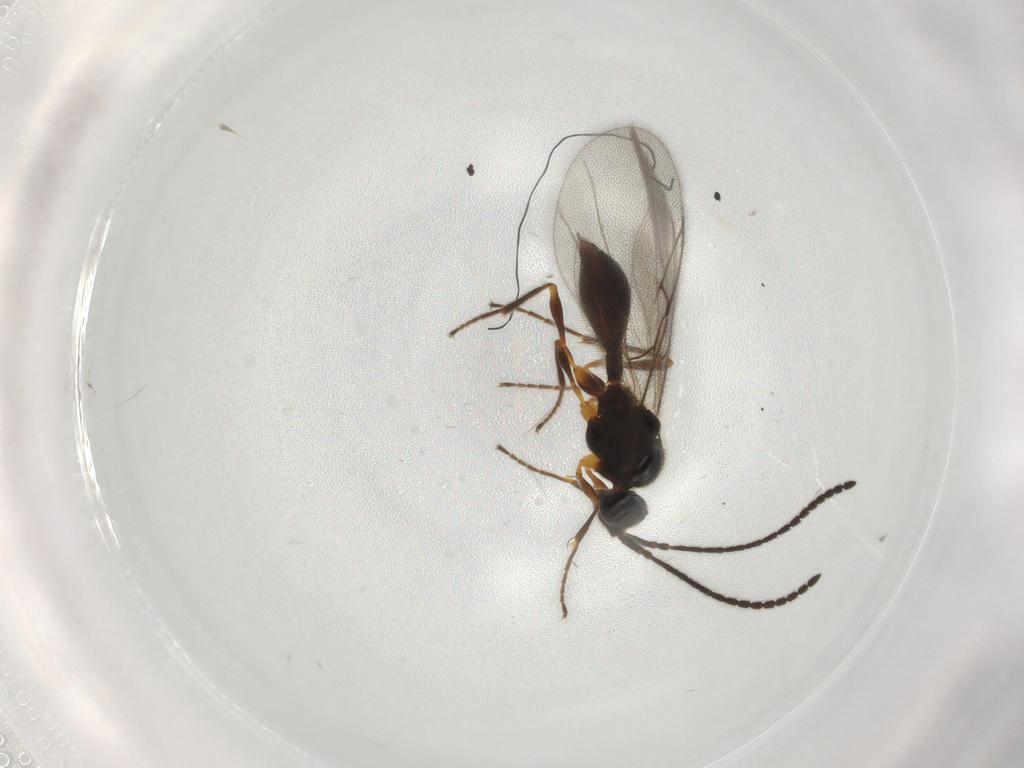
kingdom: Animalia
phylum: Arthropoda
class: Insecta
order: Hymenoptera
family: Diapriidae
